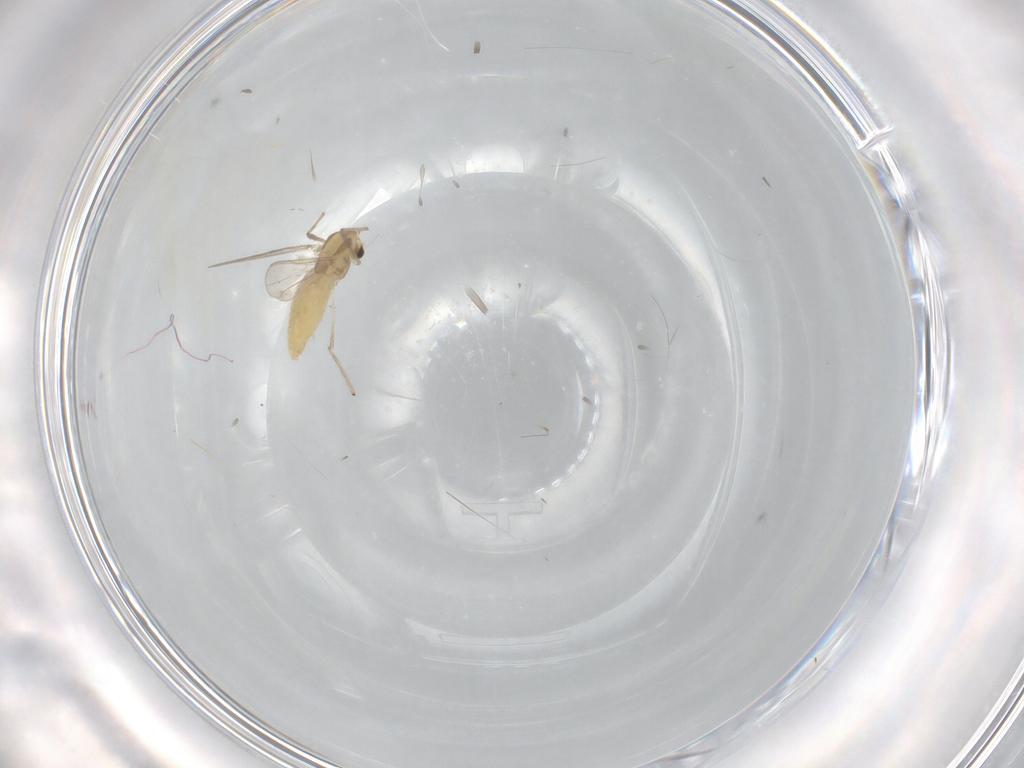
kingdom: Animalia
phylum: Arthropoda
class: Insecta
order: Diptera
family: Chironomidae
